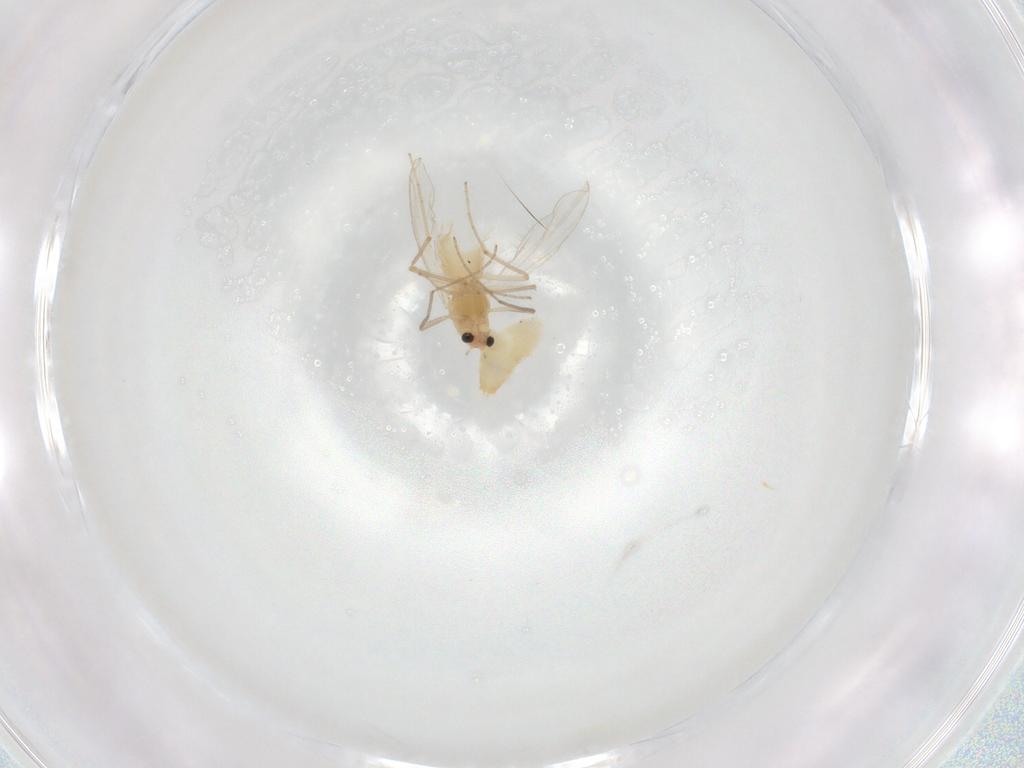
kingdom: Animalia
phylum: Arthropoda
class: Insecta
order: Diptera
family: Chironomidae
